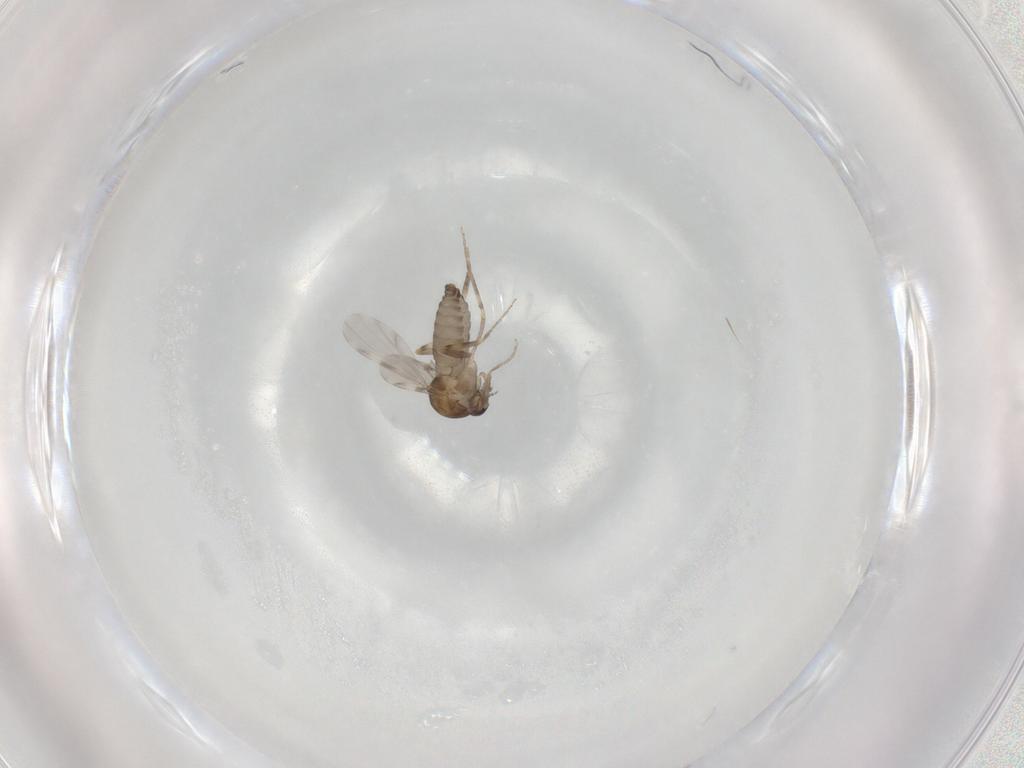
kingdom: Animalia
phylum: Arthropoda
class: Insecta
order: Diptera
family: Ceratopogonidae
